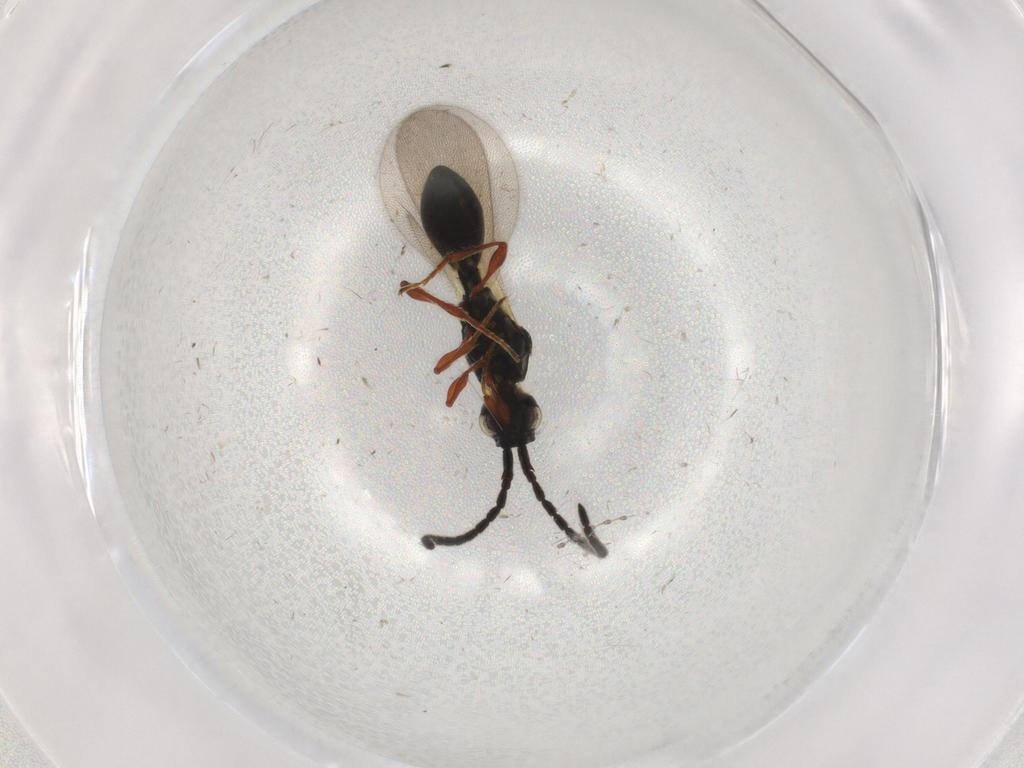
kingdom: Animalia
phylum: Arthropoda
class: Insecta
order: Hymenoptera
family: Diapriidae
